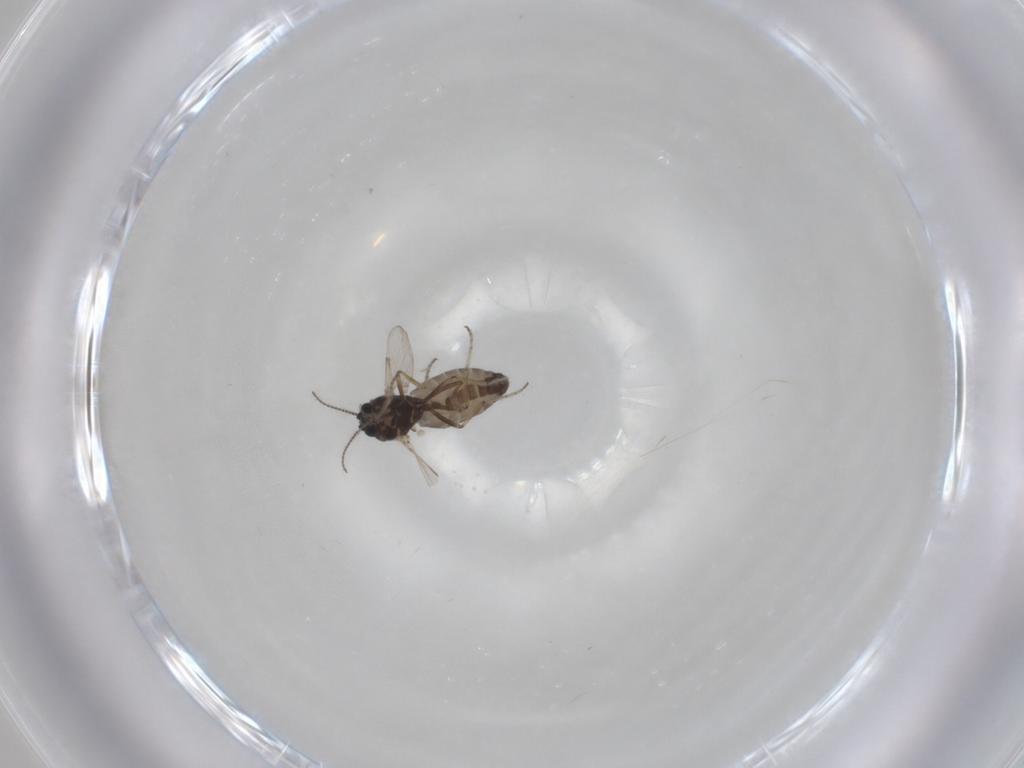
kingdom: Animalia
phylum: Arthropoda
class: Insecta
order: Diptera
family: Ceratopogonidae
